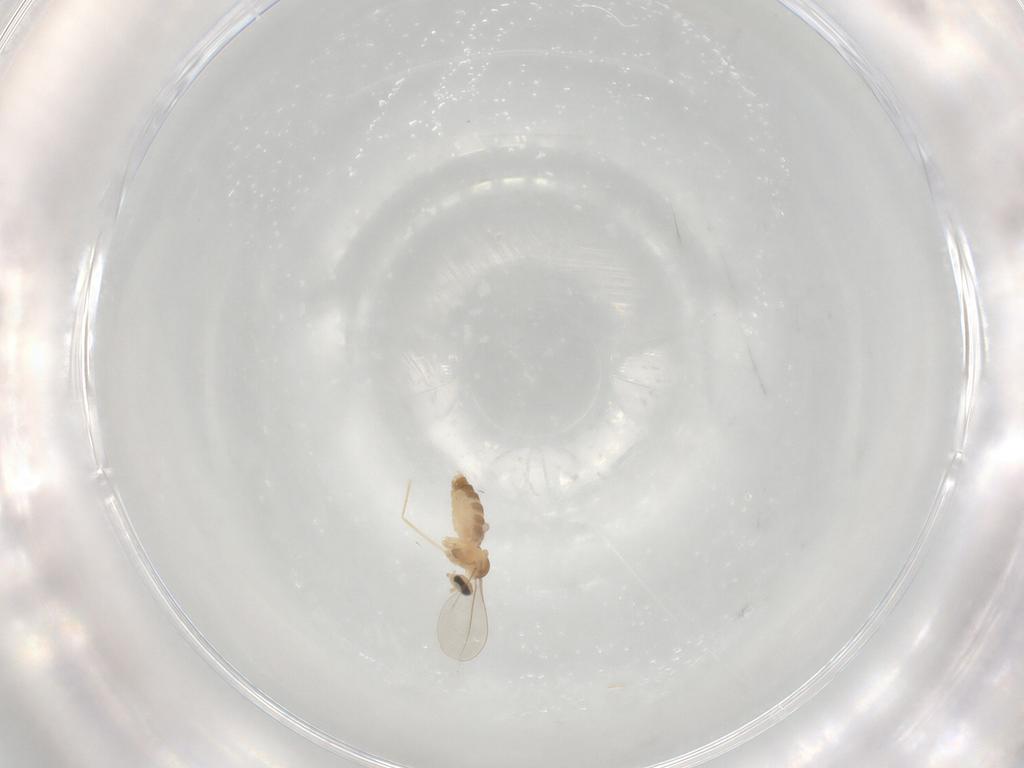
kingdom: Animalia
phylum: Arthropoda
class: Insecta
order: Diptera
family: Cecidomyiidae
